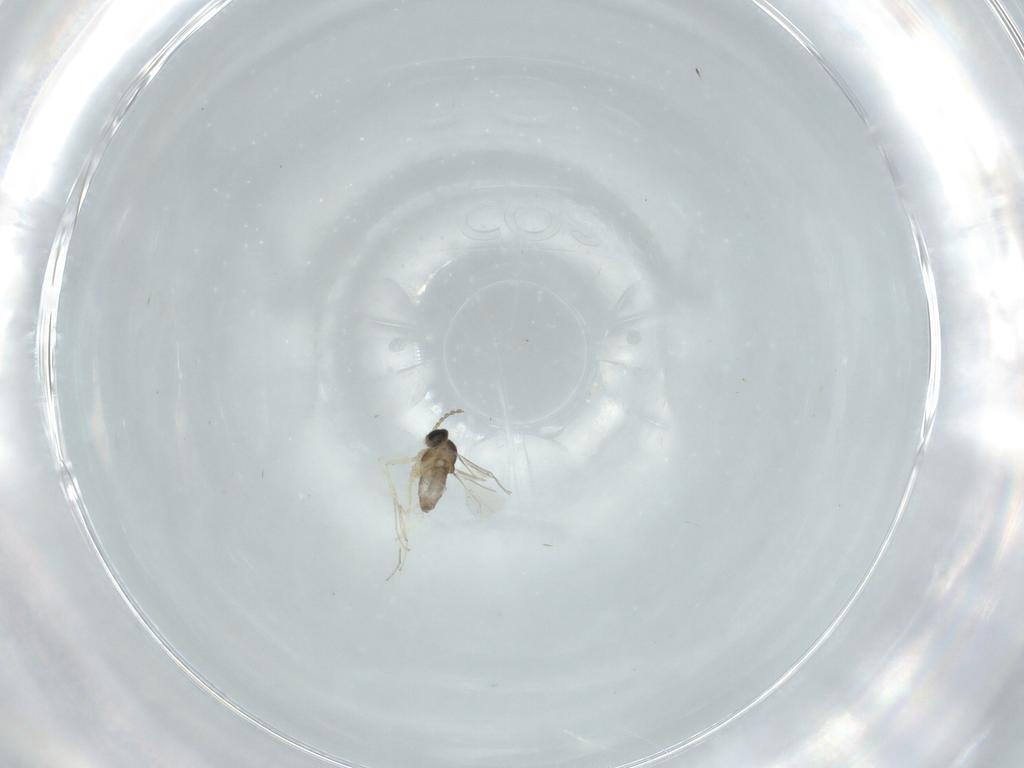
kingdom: Animalia
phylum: Arthropoda
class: Insecta
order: Diptera
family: Cecidomyiidae
